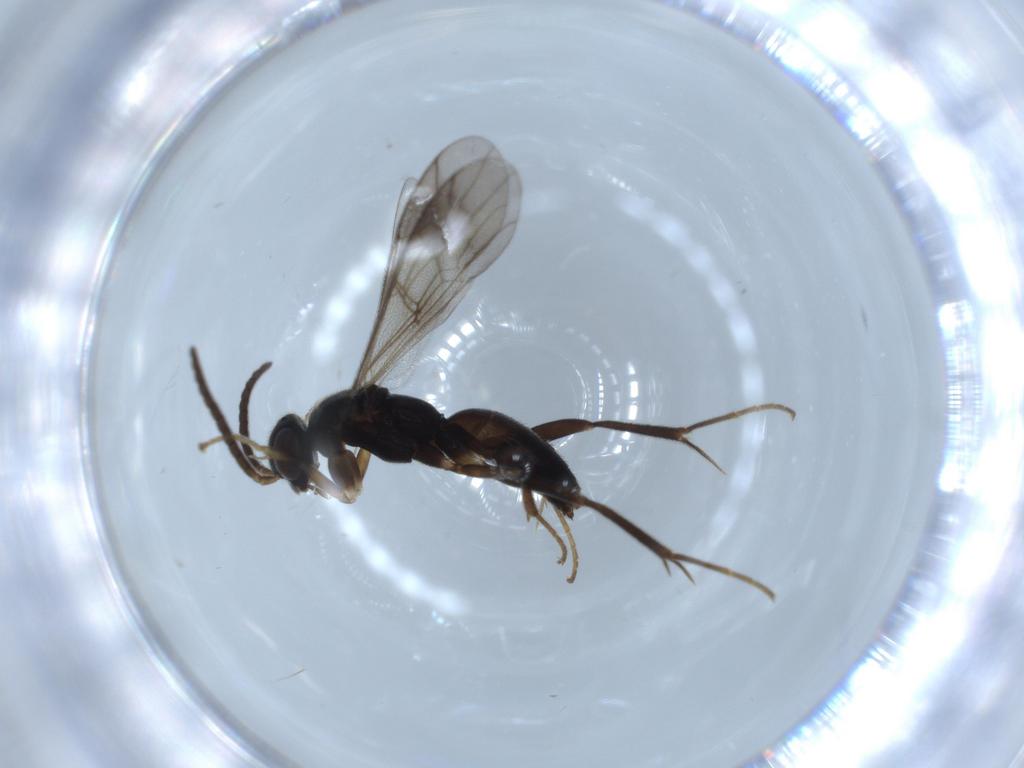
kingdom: Animalia
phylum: Arthropoda
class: Insecta
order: Hymenoptera
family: Pompilidae
